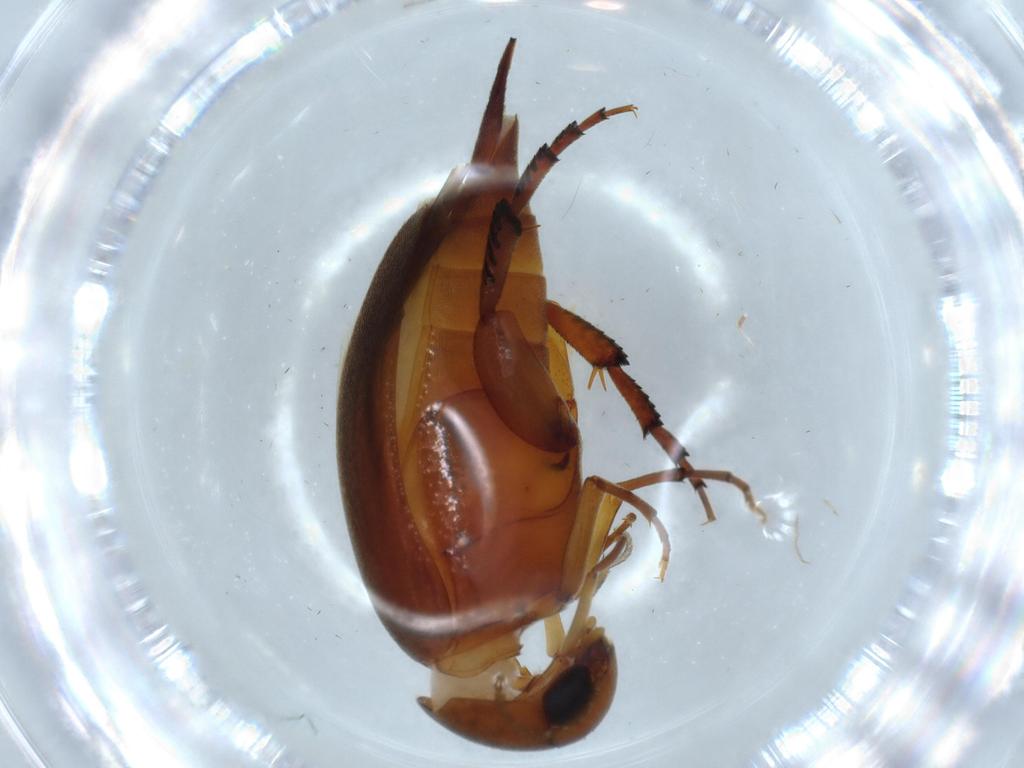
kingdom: Animalia
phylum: Arthropoda
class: Insecta
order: Coleoptera
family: Mordellidae
